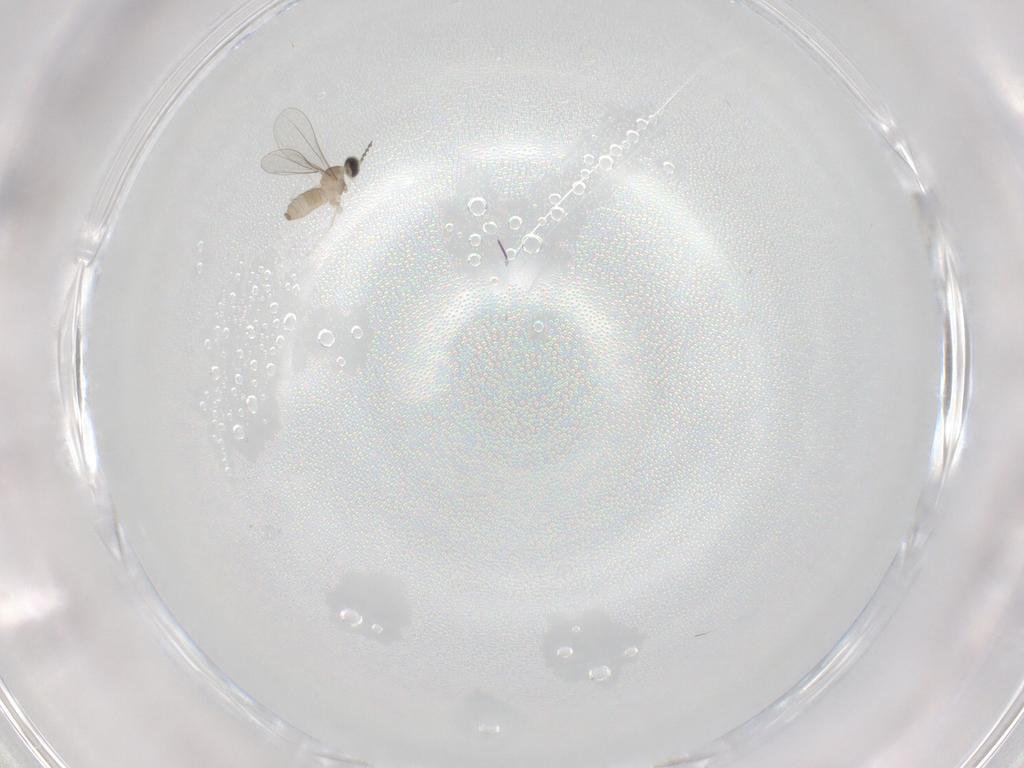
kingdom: Animalia
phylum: Arthropoda
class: Insecta
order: Diptera
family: Chironomidae
